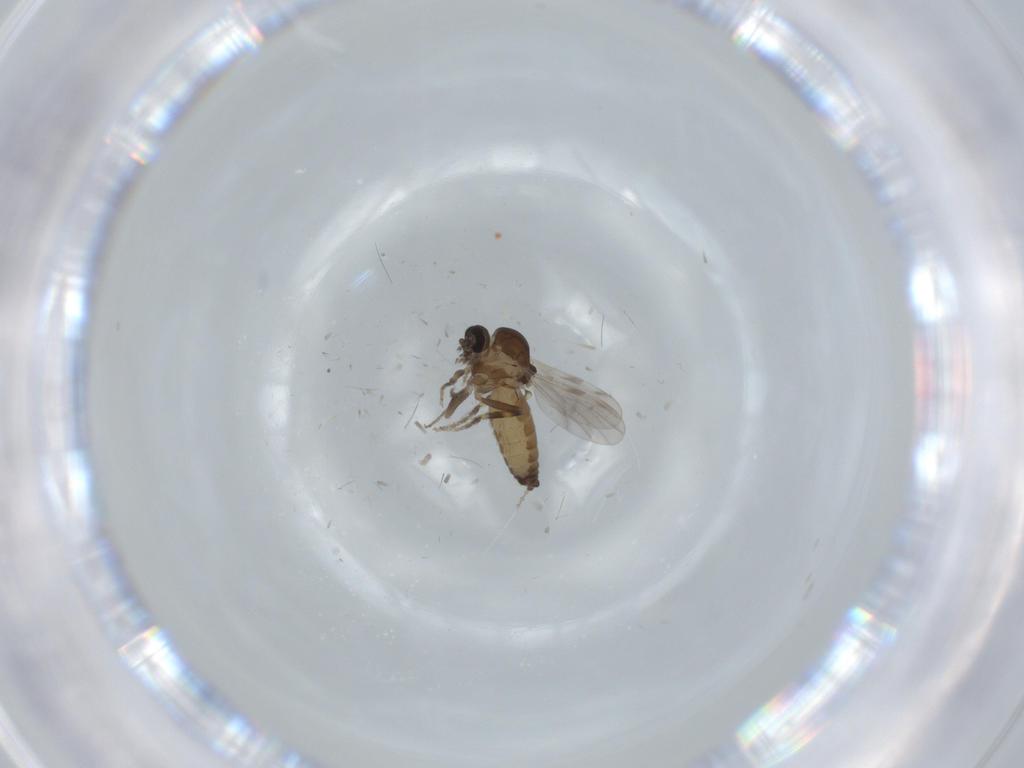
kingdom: Animalia
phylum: Arthropoda
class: Insecta
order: Diptera
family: Ceratopogonidae
